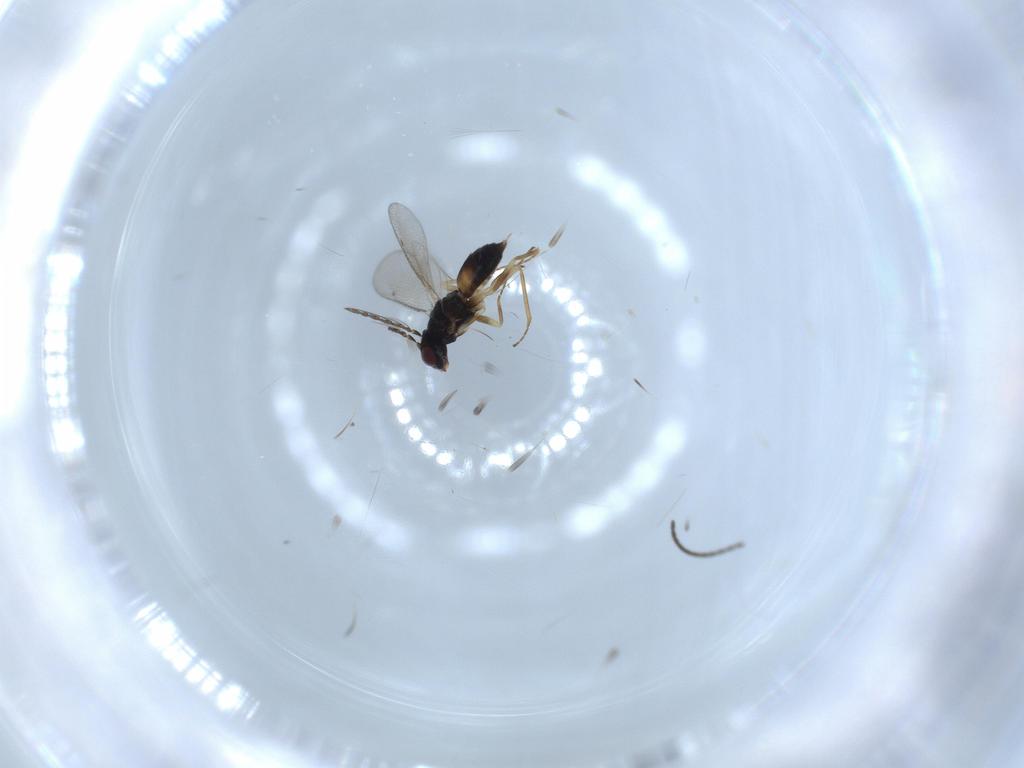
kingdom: Animalia
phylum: Arthropoda
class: Insecta
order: Hymenoptera
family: Eulophidae
